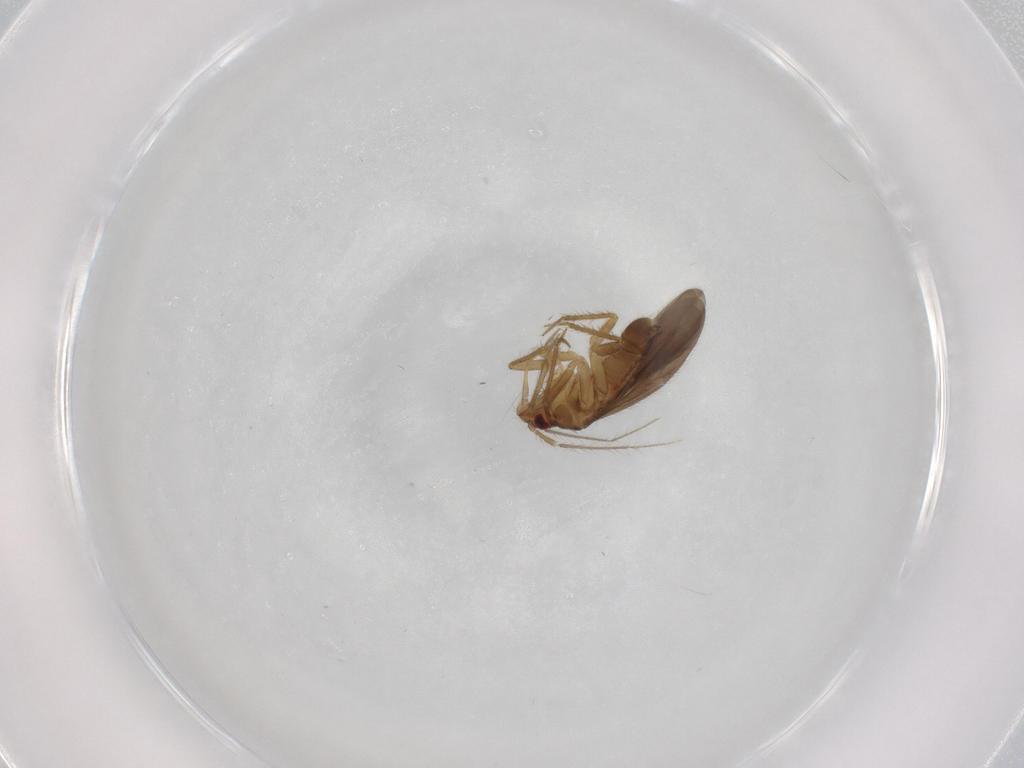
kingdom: Animalia
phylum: Arthropoda
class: Insecta
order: Hemiptera
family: Ceratocombidae
